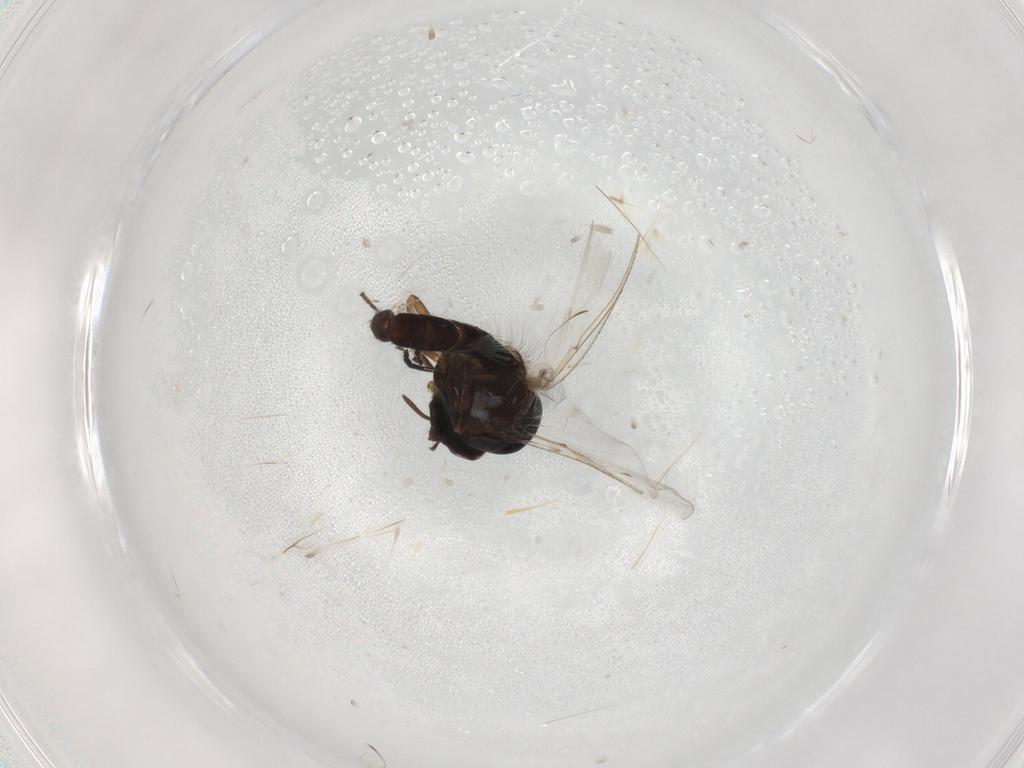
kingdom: Animalia
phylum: Arthropoda
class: Insecta
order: Diptera
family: Simuliidae
